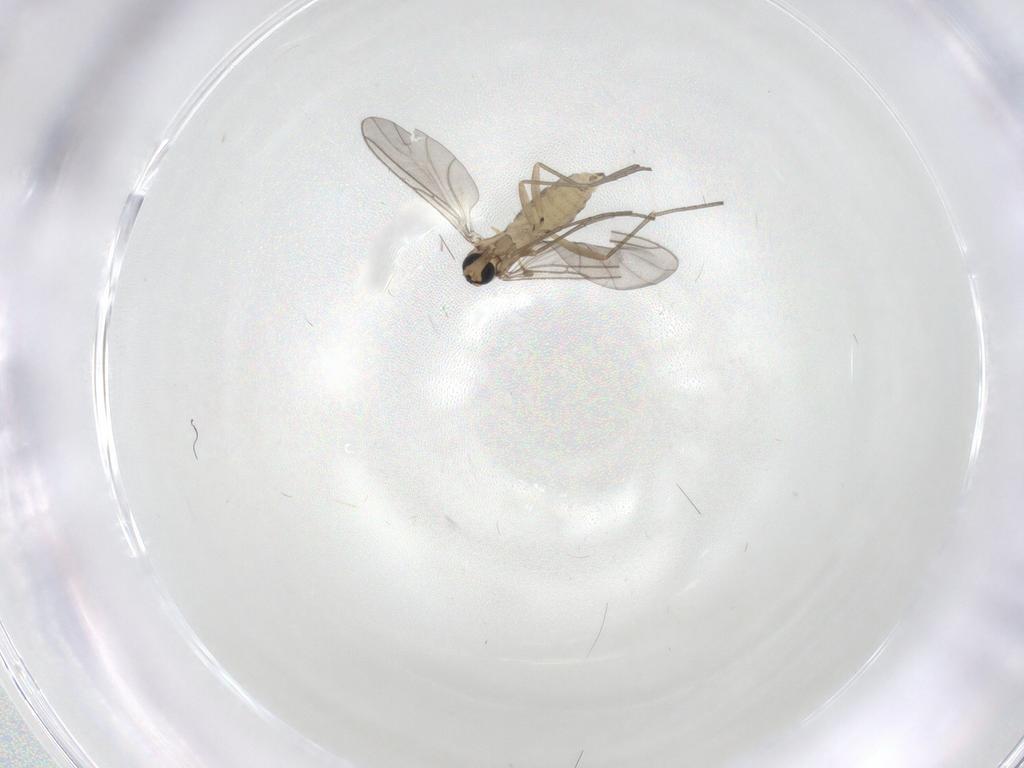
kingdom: Animalia
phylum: Arthropoda
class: Insecta
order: Diptera
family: Sciaridae
